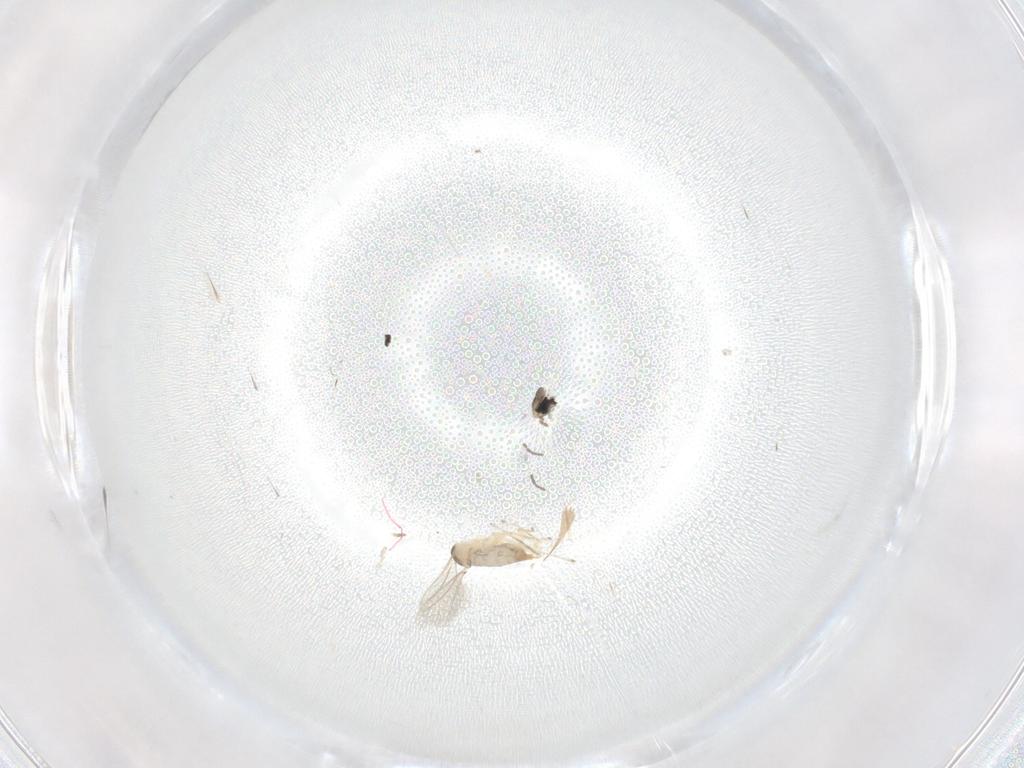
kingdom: Animalia
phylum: Arthropoda
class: Insecta
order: Diptera
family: Cecidomyiidae
